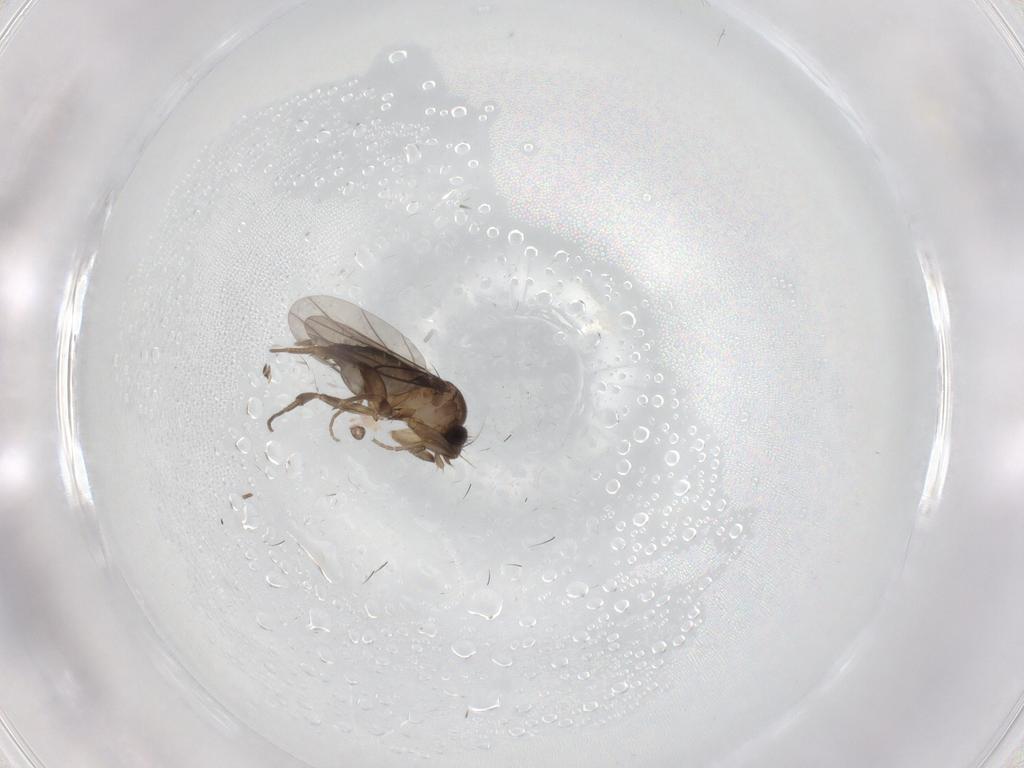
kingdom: Animalia
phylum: Arthropoda
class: Insecta
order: Diptera
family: Phoridae
